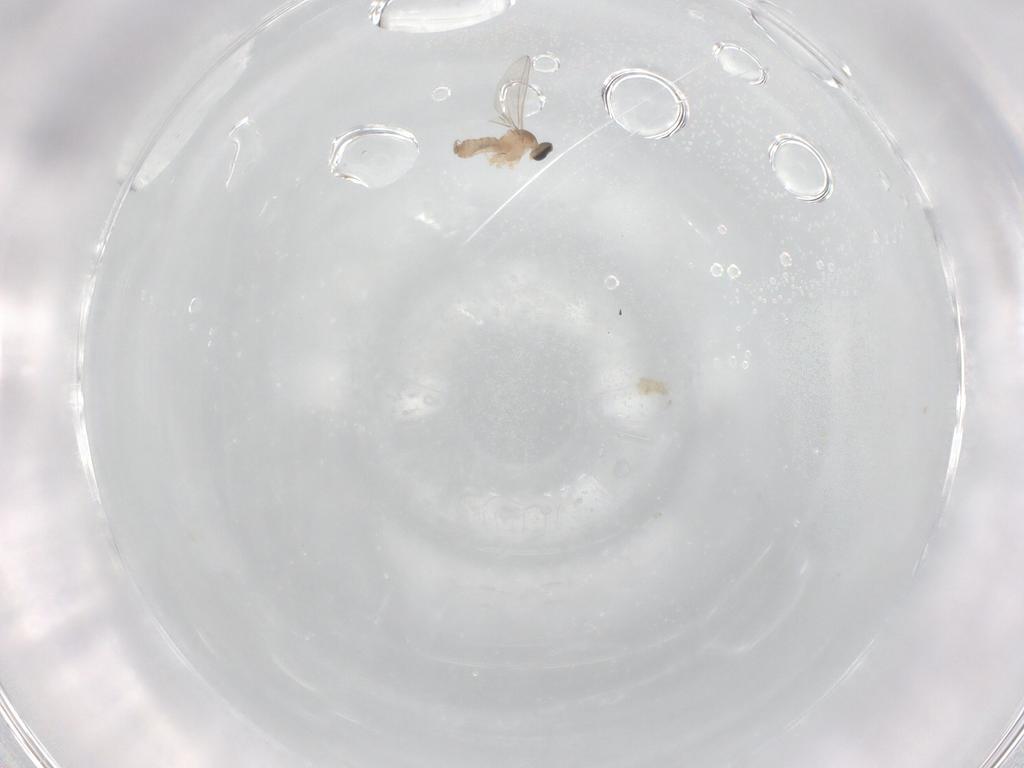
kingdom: Animalia
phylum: Arthropoda
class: Insecta
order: Diptera
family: Cecidomyiidae
